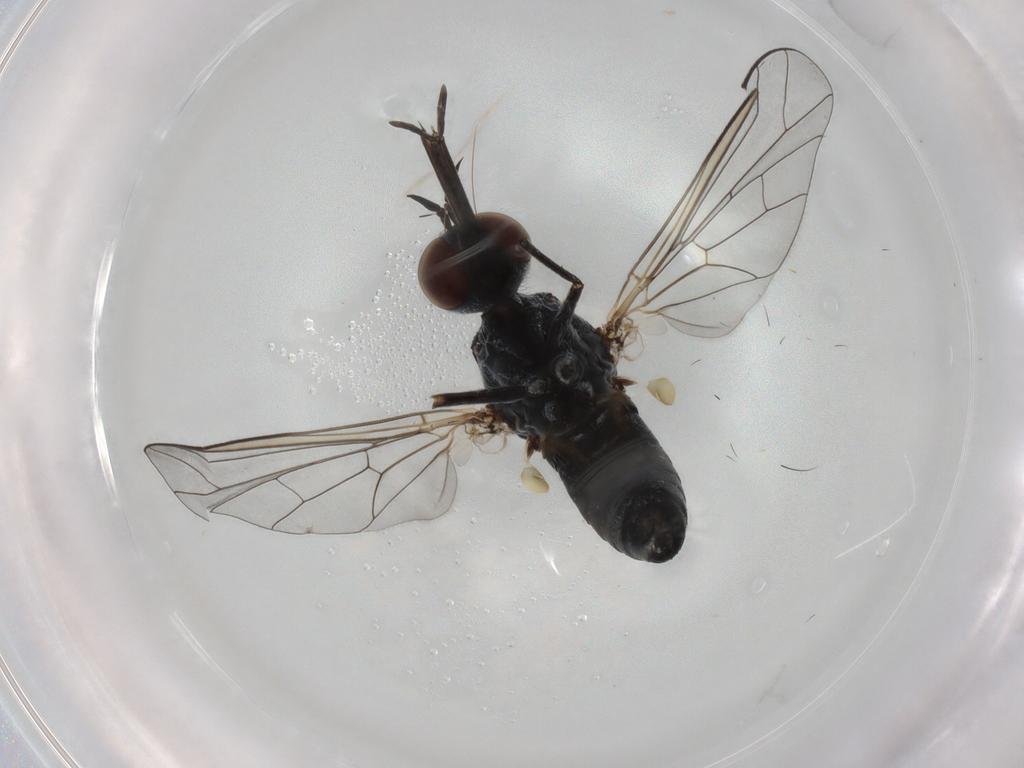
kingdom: Animalia
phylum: Arthropoda
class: Insecta
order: Diptera
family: Bombyliidae
